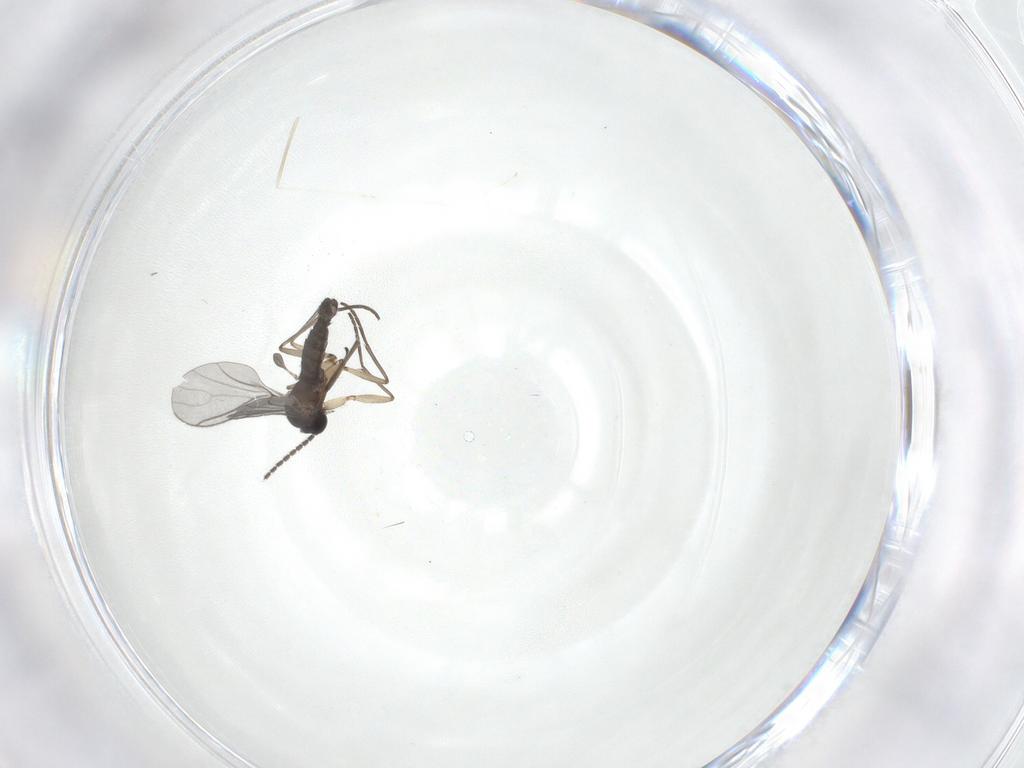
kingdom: Animalia
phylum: Arthropoda
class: Insecta
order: Diptera
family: Sciaridae
